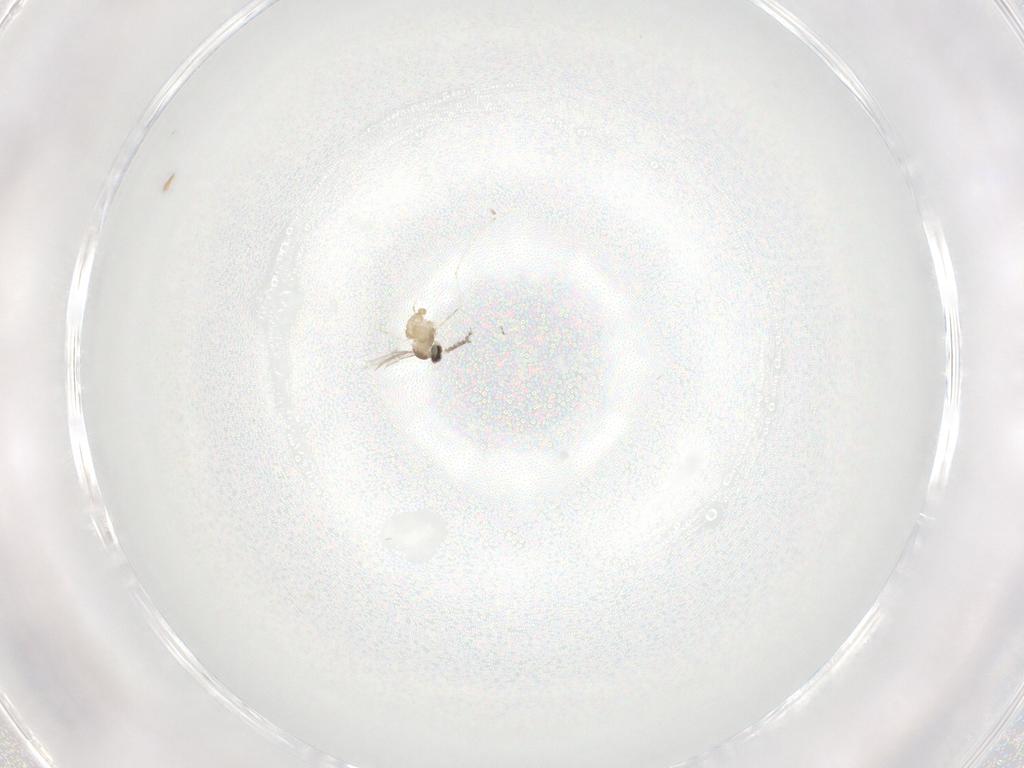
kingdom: Animalia
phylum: Arthropoda
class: Insecta
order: Diptera
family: Cecidomyiidae
